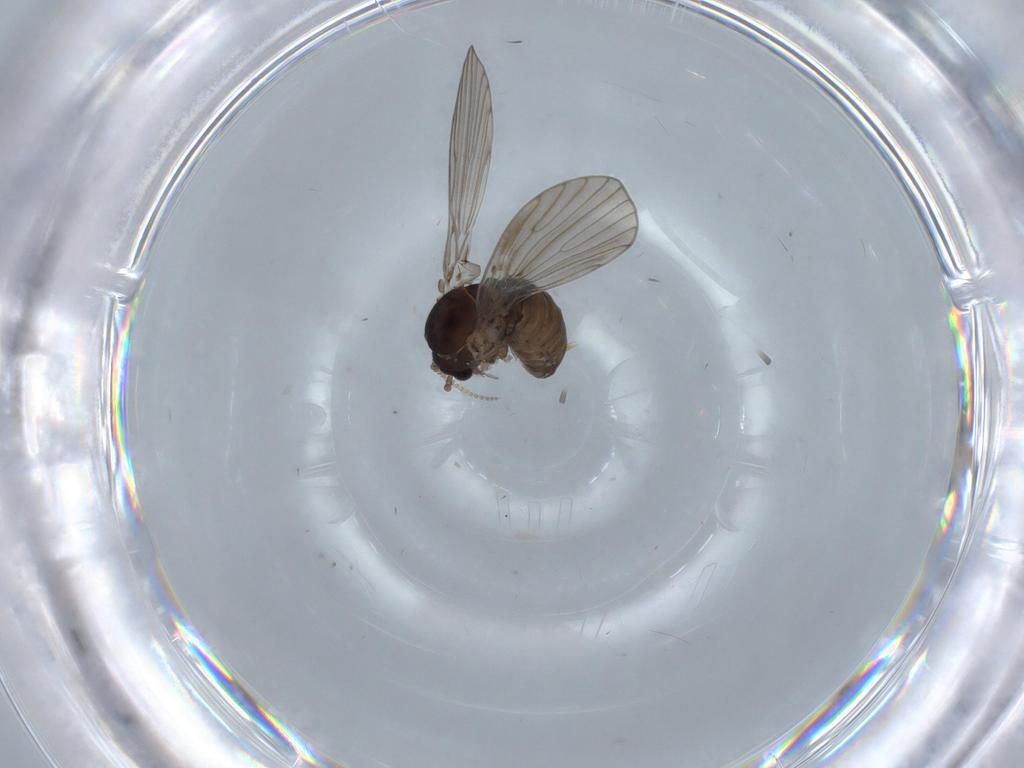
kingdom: Animalia
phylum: Arthropoda
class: Insecta
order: Diptera
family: Psychodidae
